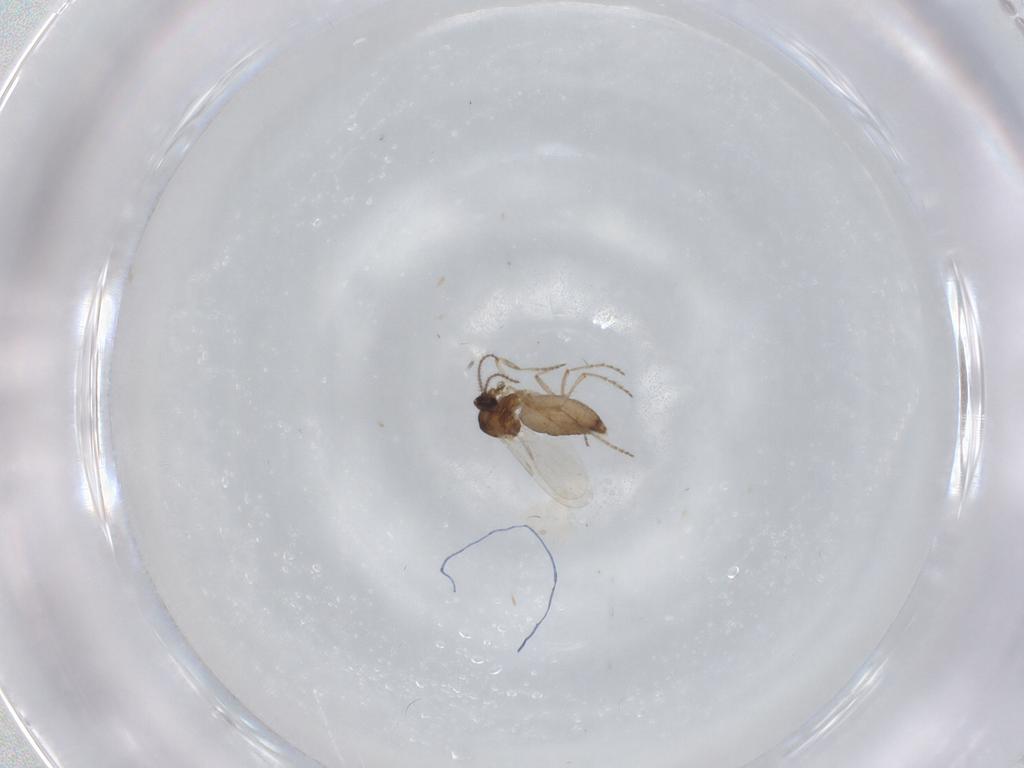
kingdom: Animalia
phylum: Arthropoda
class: Insecta
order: Diptera
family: Ceratopogonidae
